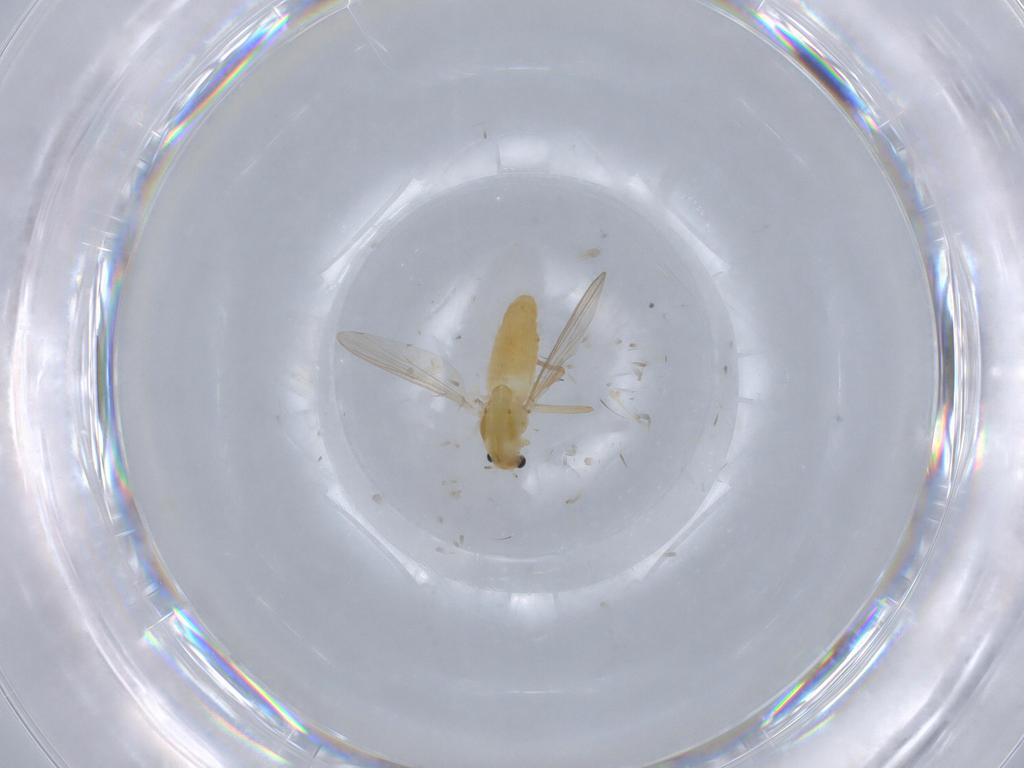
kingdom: Animalia
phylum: Arthropoda
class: Insecta
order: Diptera
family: Chironomidae
